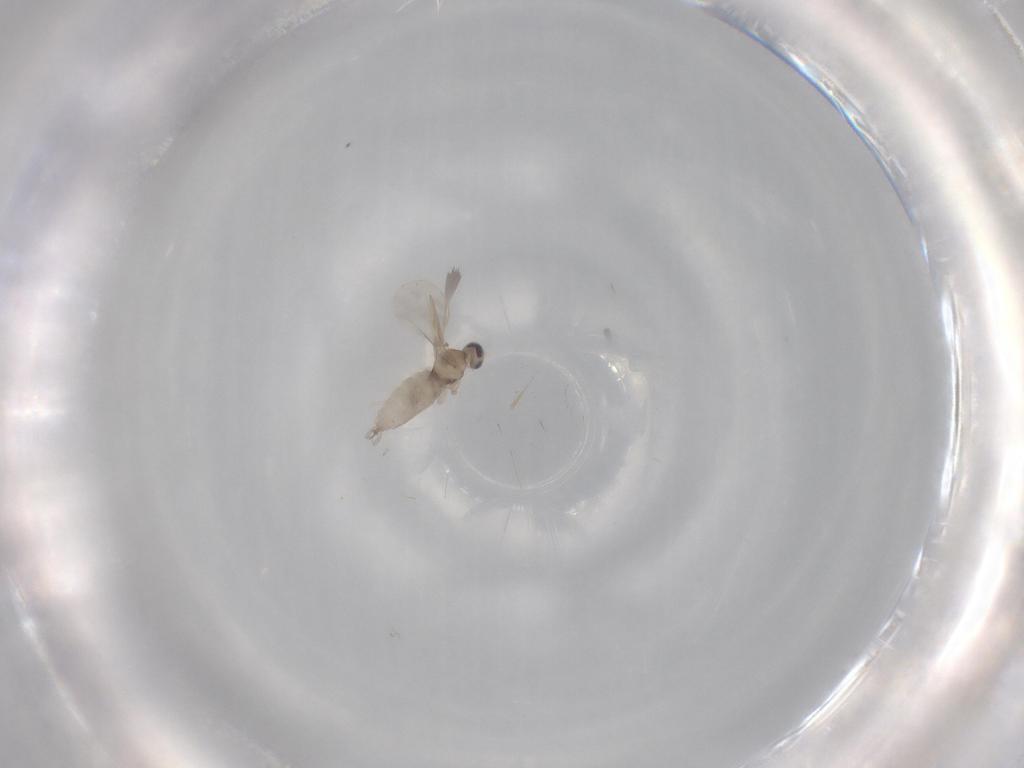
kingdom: Animalia
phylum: Arthropoda
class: Insecta
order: Diptera
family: Cecidomyiidae
